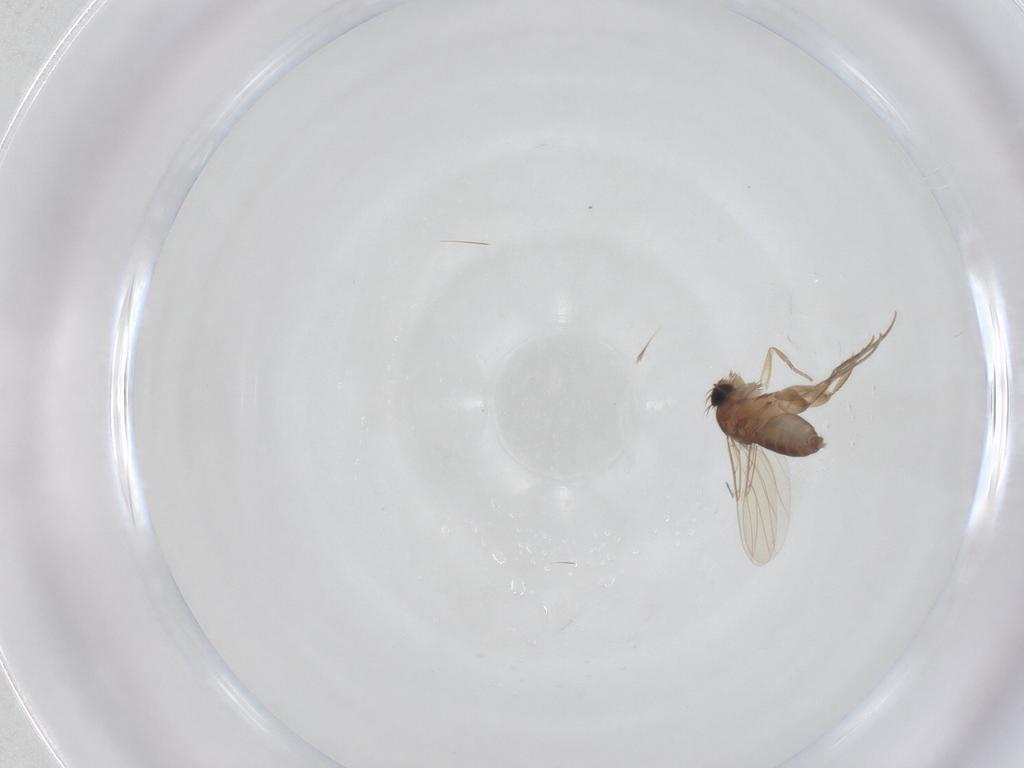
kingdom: Animalia
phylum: Arthropoda
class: Insecta
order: Diptera
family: Phoridae
